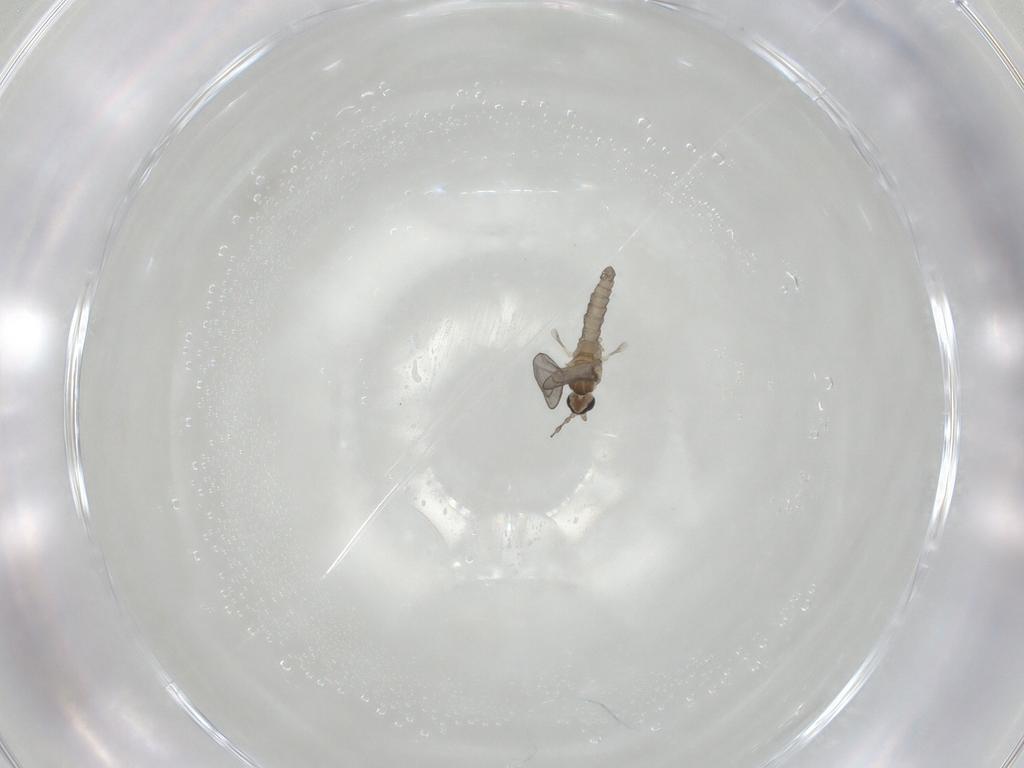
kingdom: Animalia
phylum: Arthropoda
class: Insecta
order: Diptera
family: Cecidomyiidae
